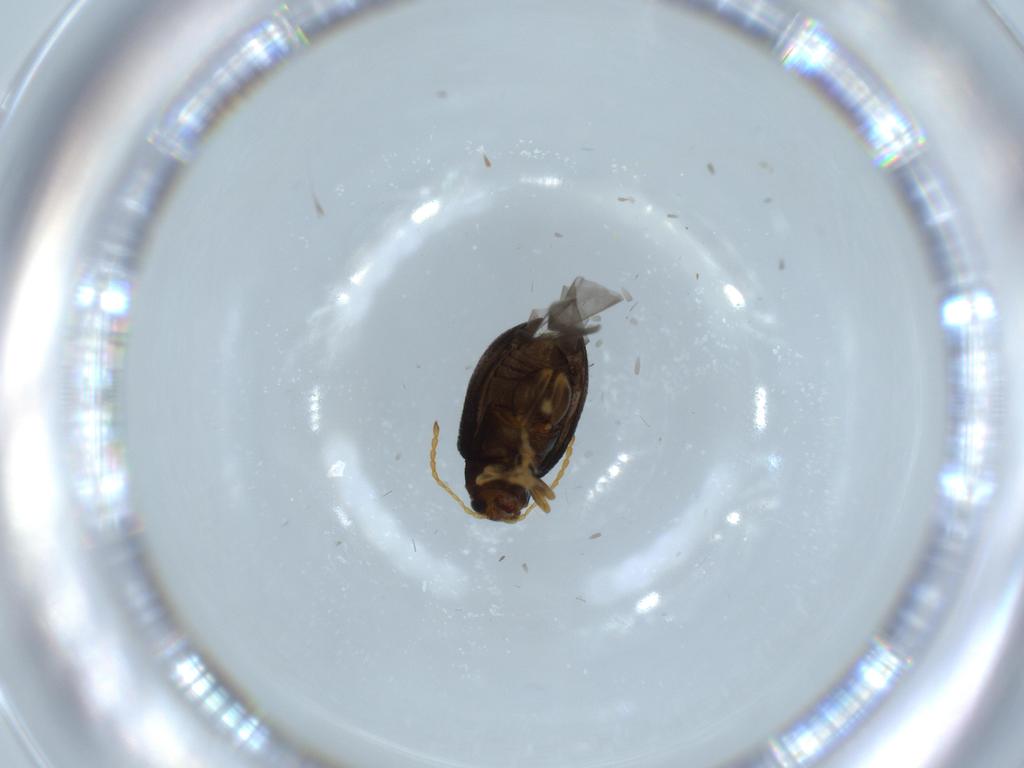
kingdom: Animalia
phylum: Arthropoda
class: Insecta
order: Coleoptera
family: Chrysomelidae
